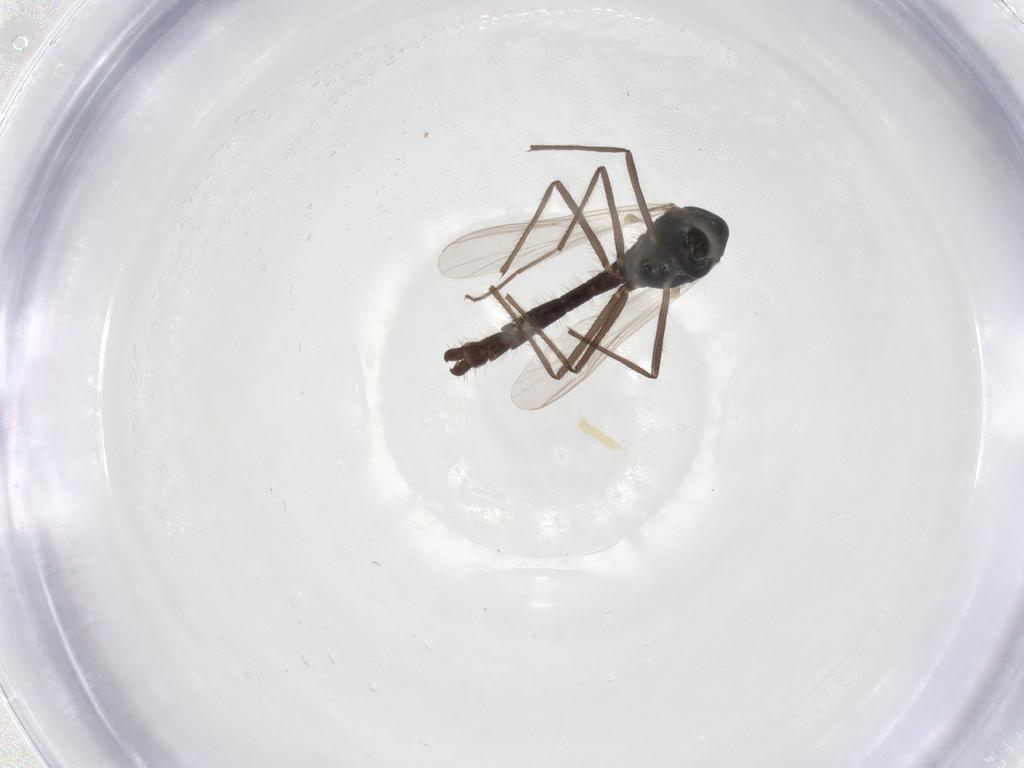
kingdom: Animalia
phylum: Arthropoda
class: Insecta
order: Diptera
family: Chironomidae
